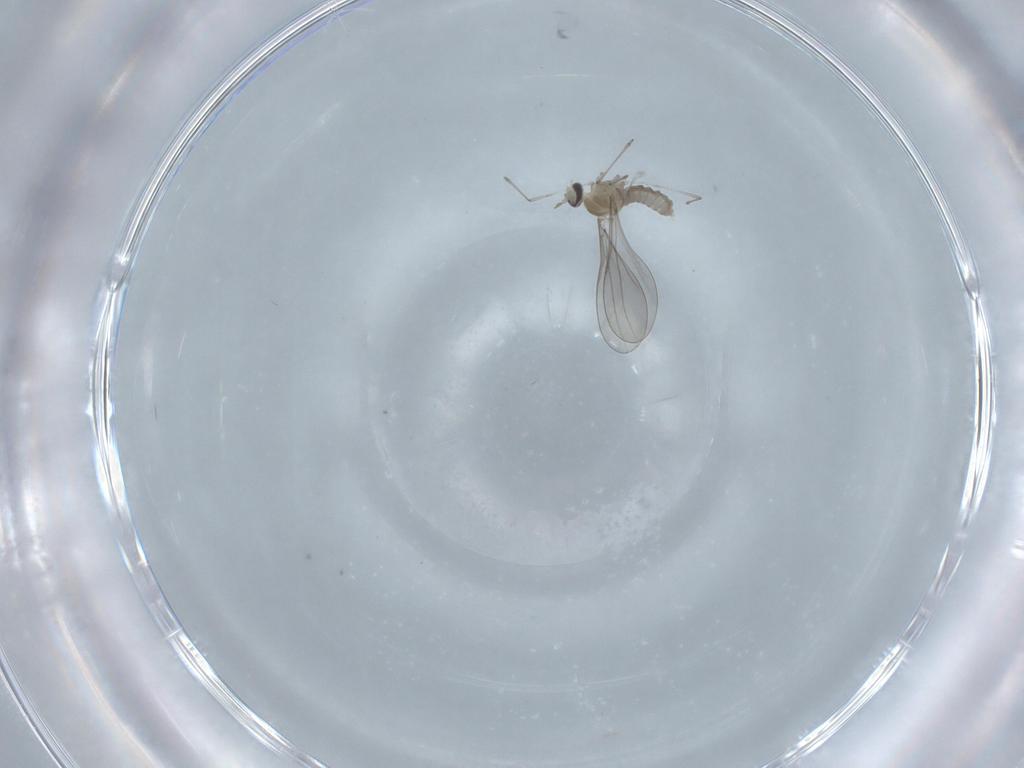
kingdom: Animalia
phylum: Arthropoda
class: Insecta
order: Diptera
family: Sciaridae
